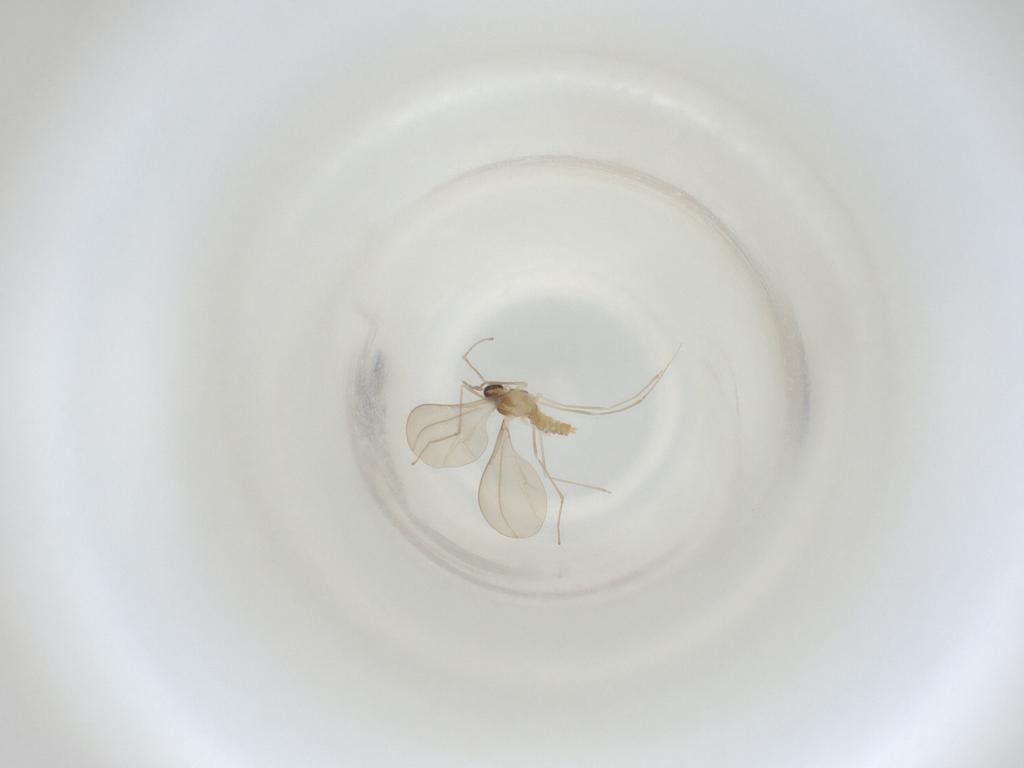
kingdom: Animalia
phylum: Arthropoda
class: Insecta
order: Diptera
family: Cecidomyiidae
